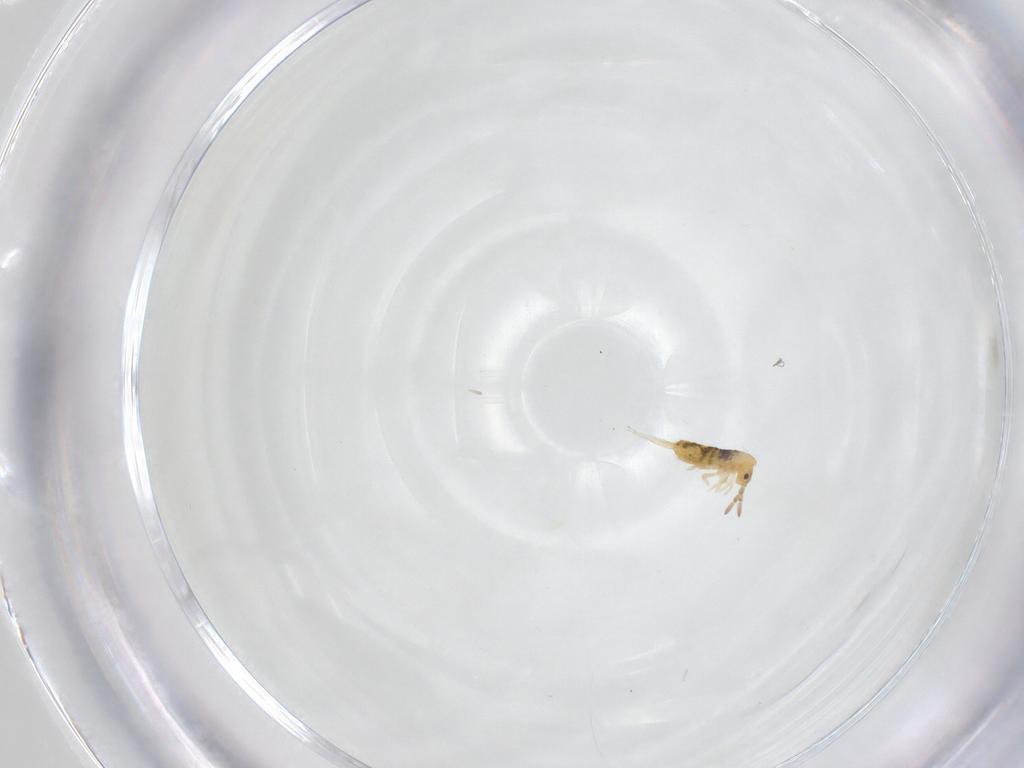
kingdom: Animalia
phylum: Arthropoda
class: Collembola
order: Entomobryomorpha
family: Entomobryidae
